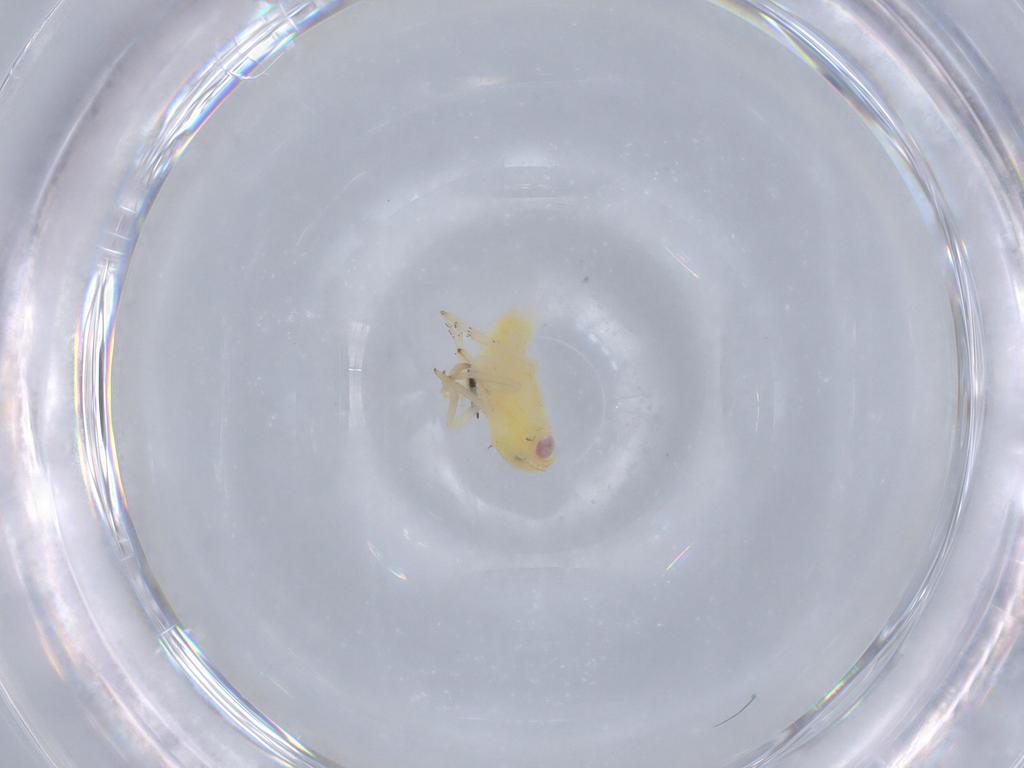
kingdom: Animalia
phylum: Arthropoda
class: Insecta
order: Hemiptera
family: Tropiduchidae
